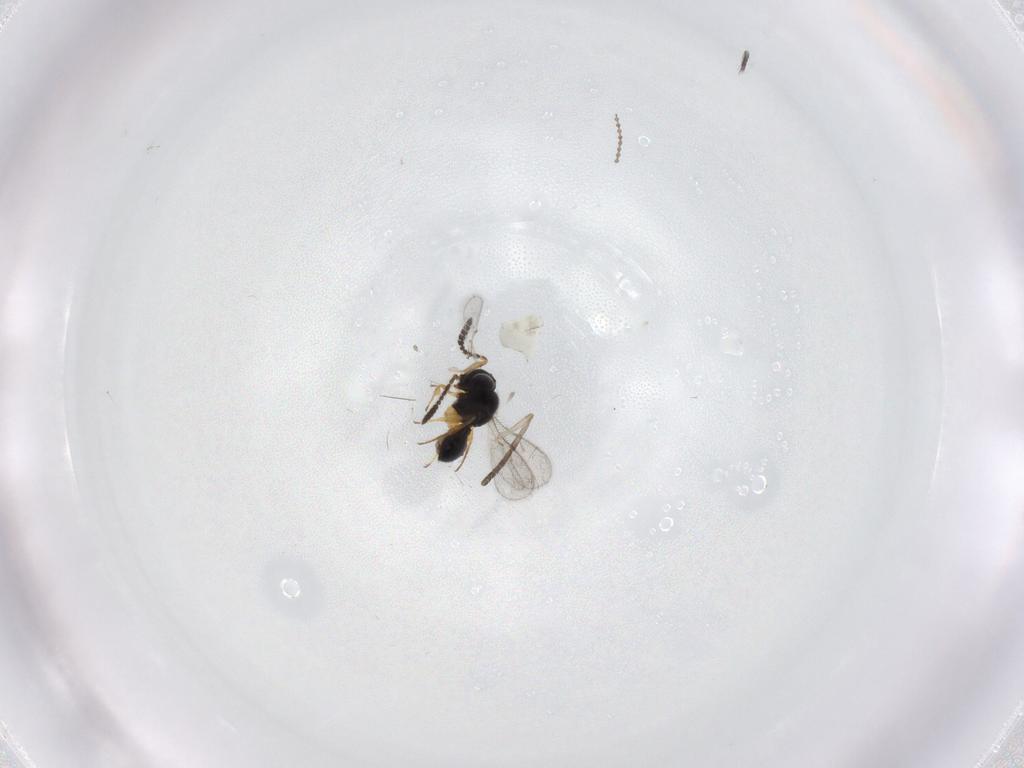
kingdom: Animalia
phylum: Arthropoda
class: Insecta
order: Hymenoptera
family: Scelionidae
